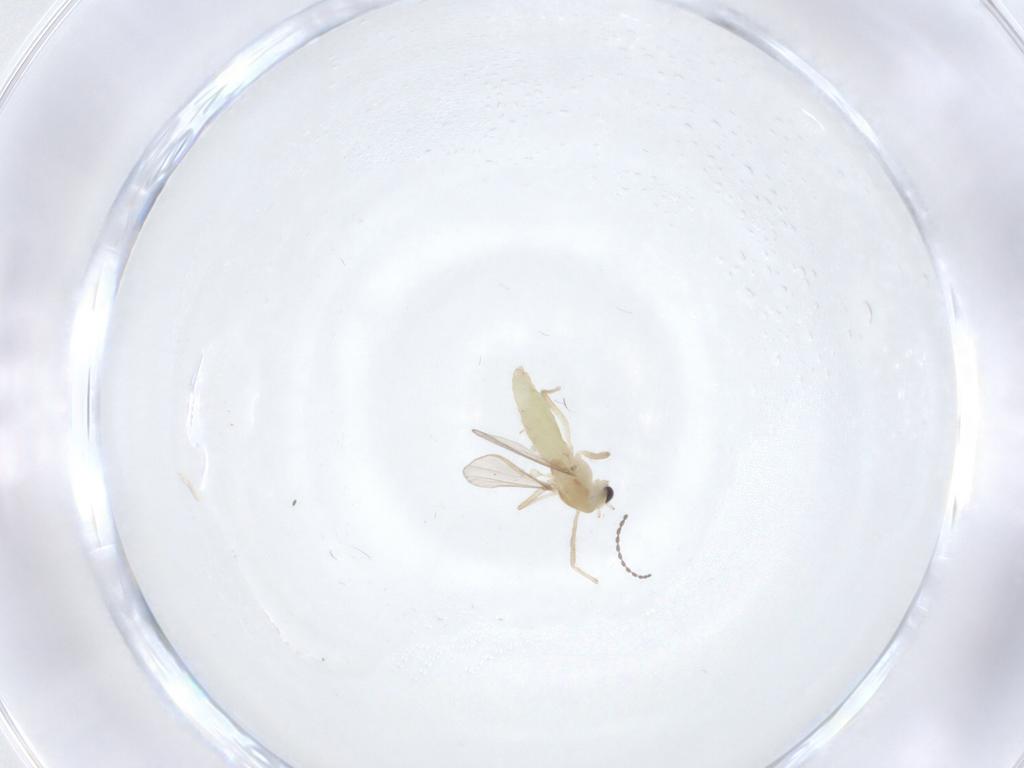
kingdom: Animalia
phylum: Arthropoda
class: Insecta
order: Diptera
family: Chironomidae
